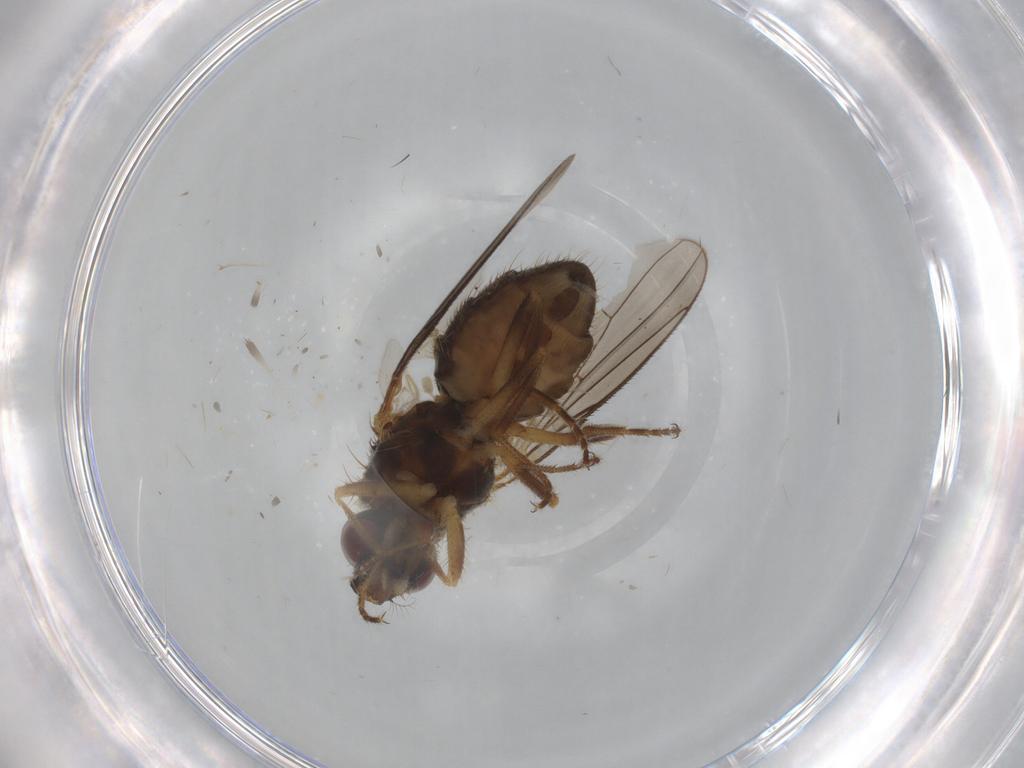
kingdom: Animalia
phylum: Arthropoda
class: Insecta
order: Diptera
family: Muscidae
